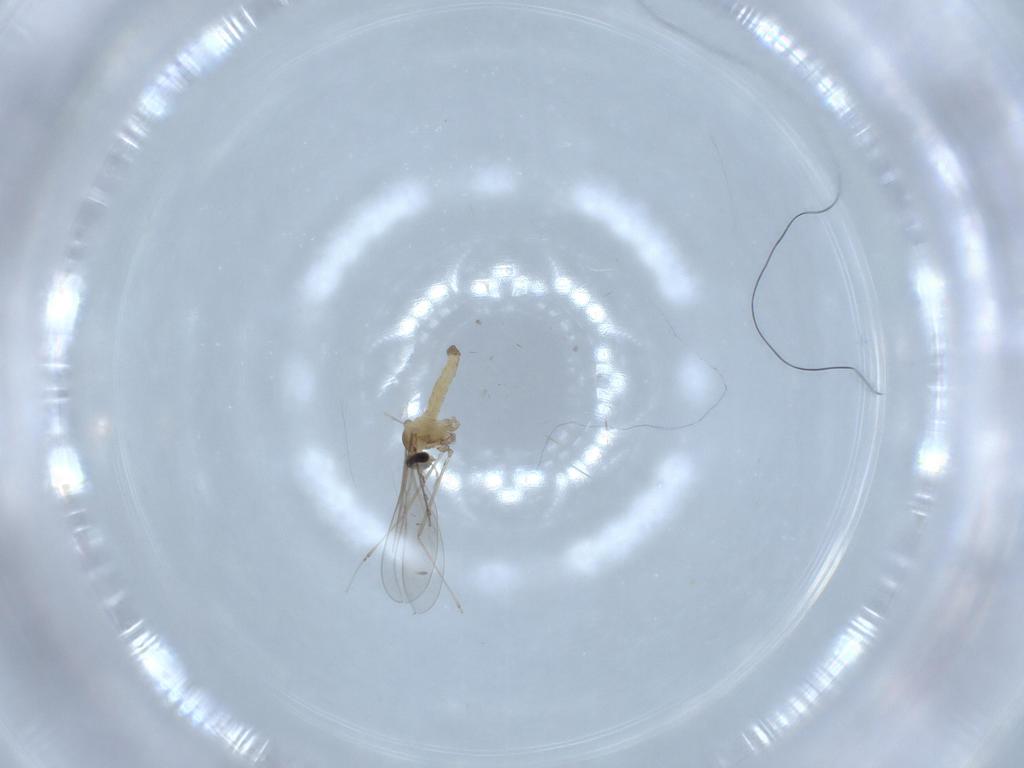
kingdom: Animalia
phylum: Arthropoda
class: Insecta
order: Diptera
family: Cecidomyiidae
